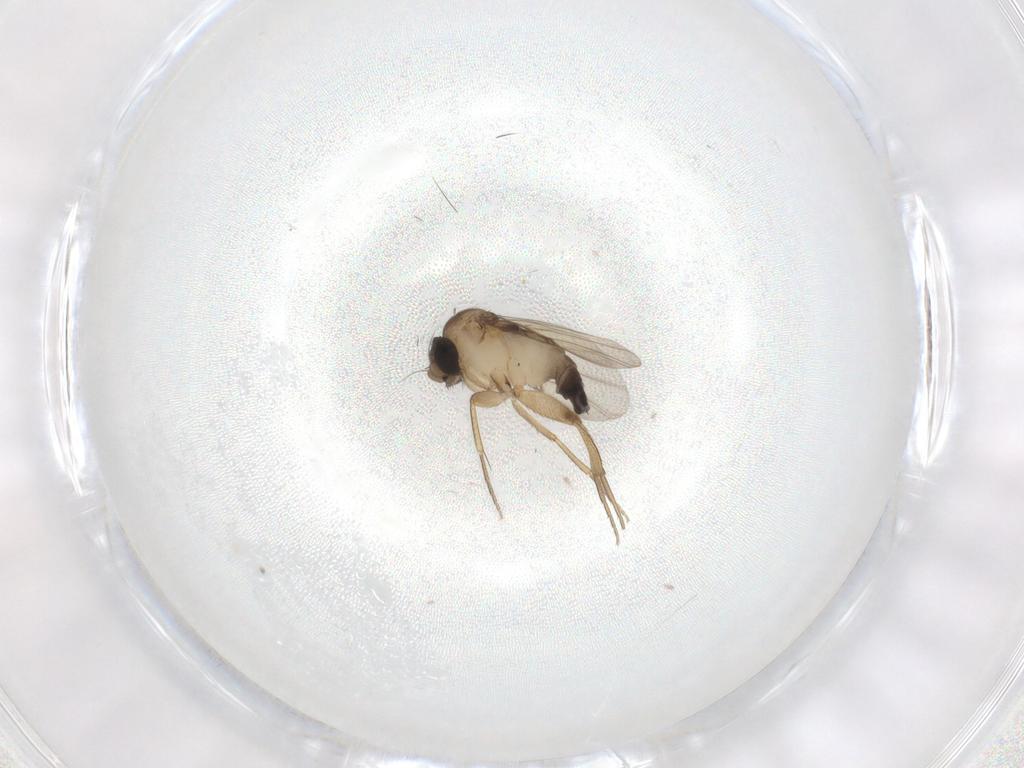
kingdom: Animalia
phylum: Arthropoda
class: Insecta
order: Diptera
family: Phoridae
